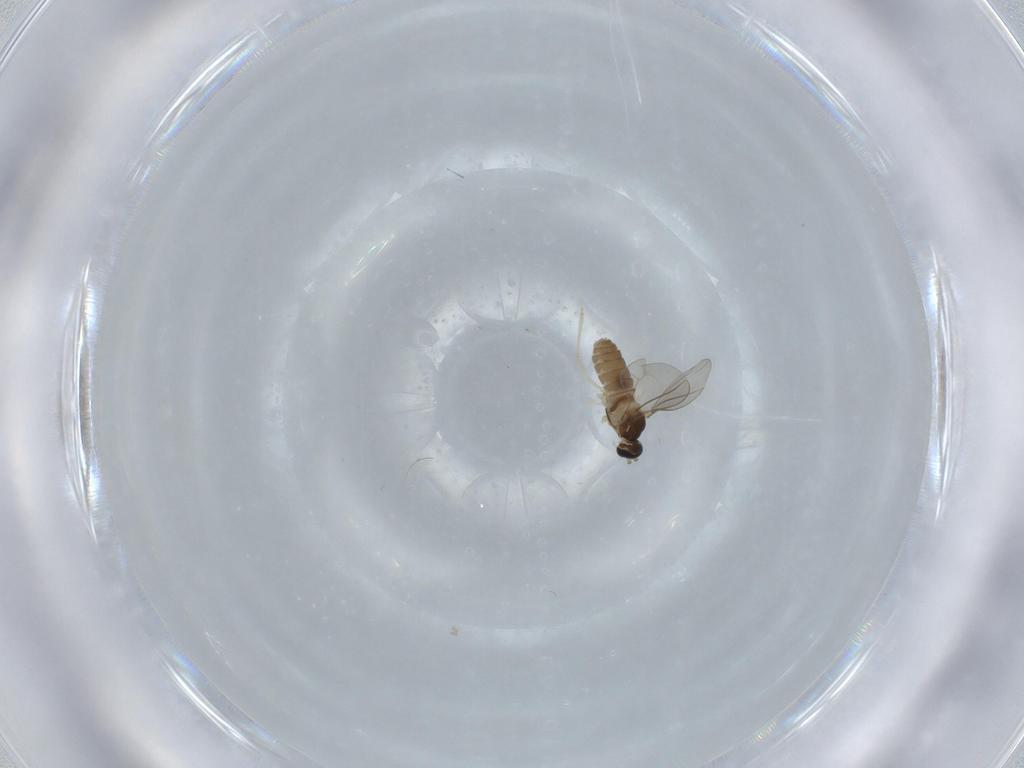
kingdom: Animalia
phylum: Arthropoda
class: Insecta
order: Diptera
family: Cecidomyiidae
